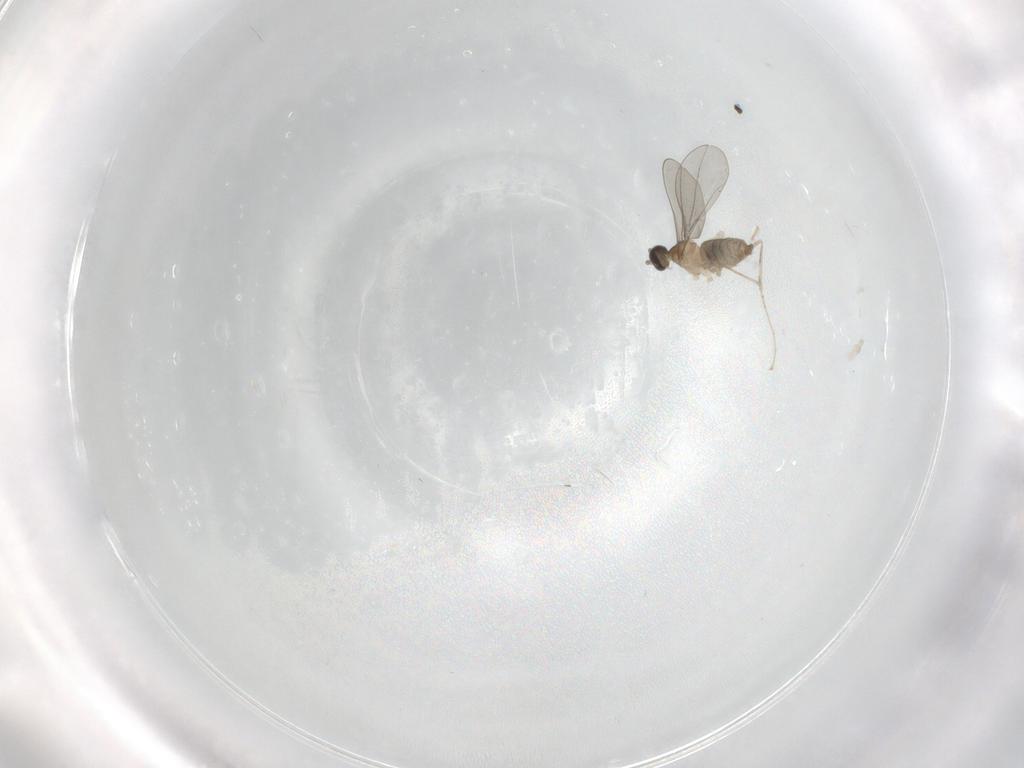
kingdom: Animalia
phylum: Arthropoda
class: Insecta
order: Diptera
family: Cecidomyiidae
